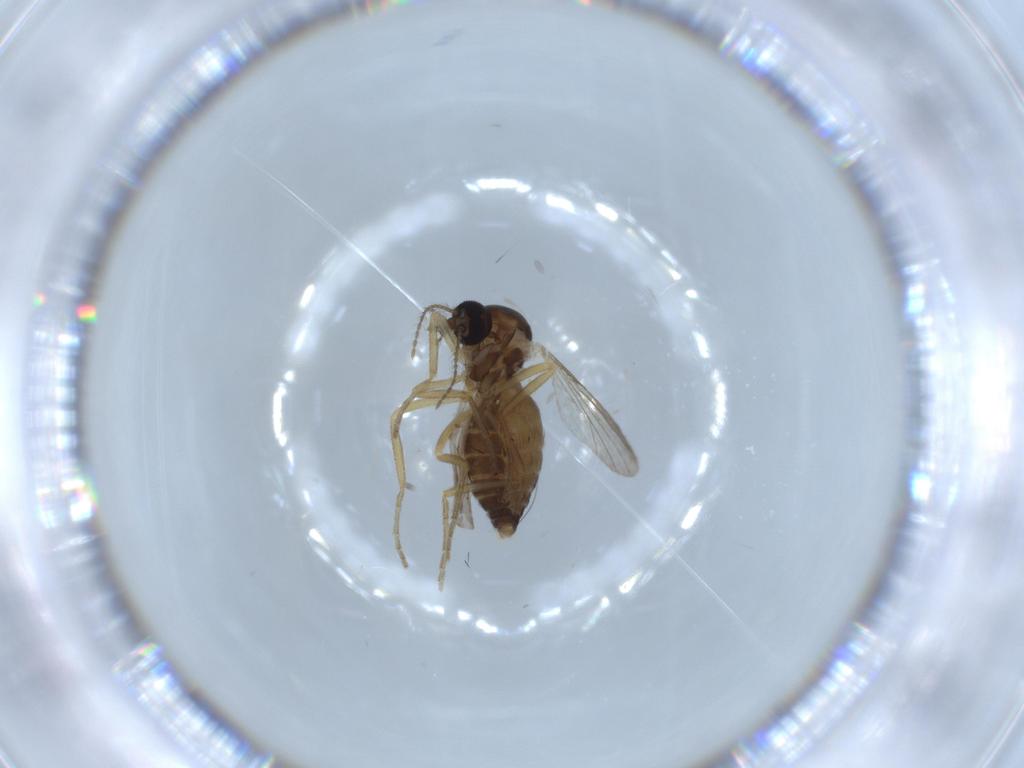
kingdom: Animalia
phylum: Arthropoda
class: Insecta
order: Diptera
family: Ceratopogonidae
